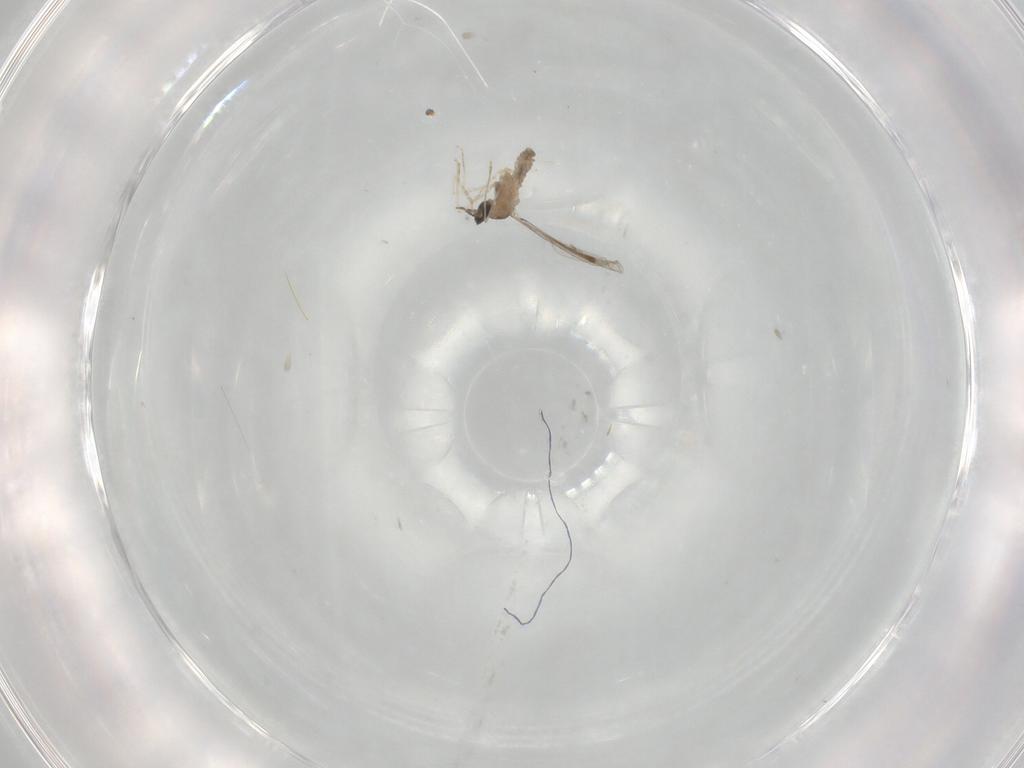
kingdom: Animalia
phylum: Arthropoda
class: Insecta
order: Diptera
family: Cecidomyiidae
